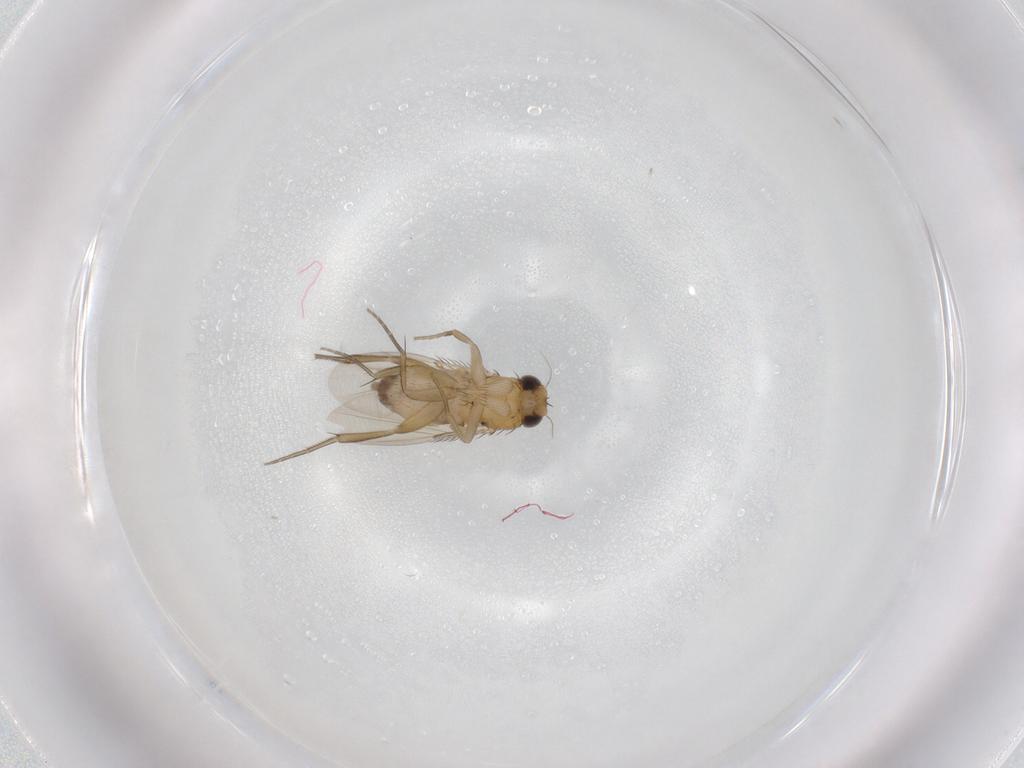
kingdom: Animalia
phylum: Arthropoda
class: Insecta
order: Diptera
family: Phoridae
